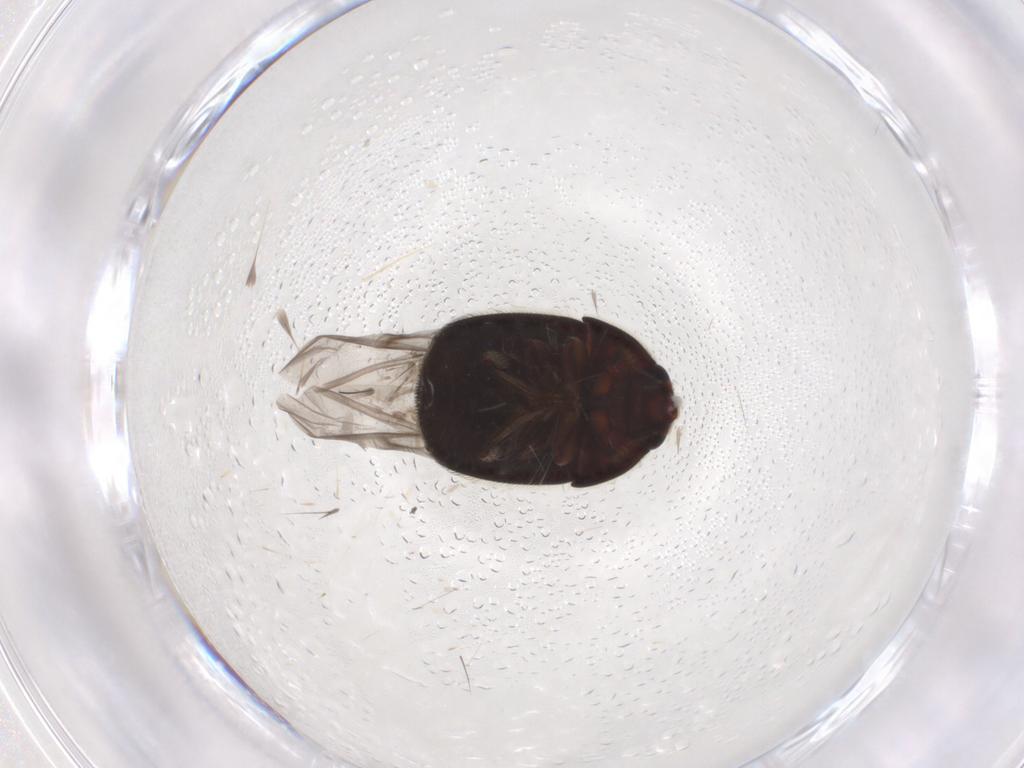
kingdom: Animalia
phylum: Arthropoda
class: Insecta
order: Coleoptera
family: Nitidulidae
